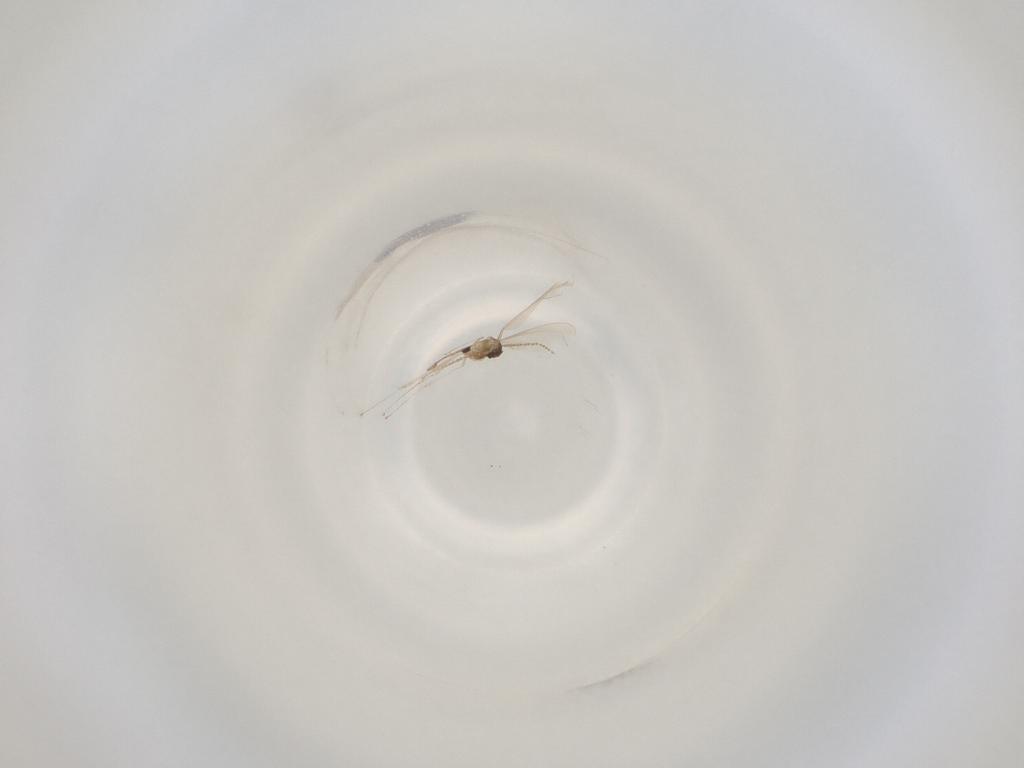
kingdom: Animalia
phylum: Arthropoda
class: Insecta
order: Diptera
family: Cecidomyiidae
